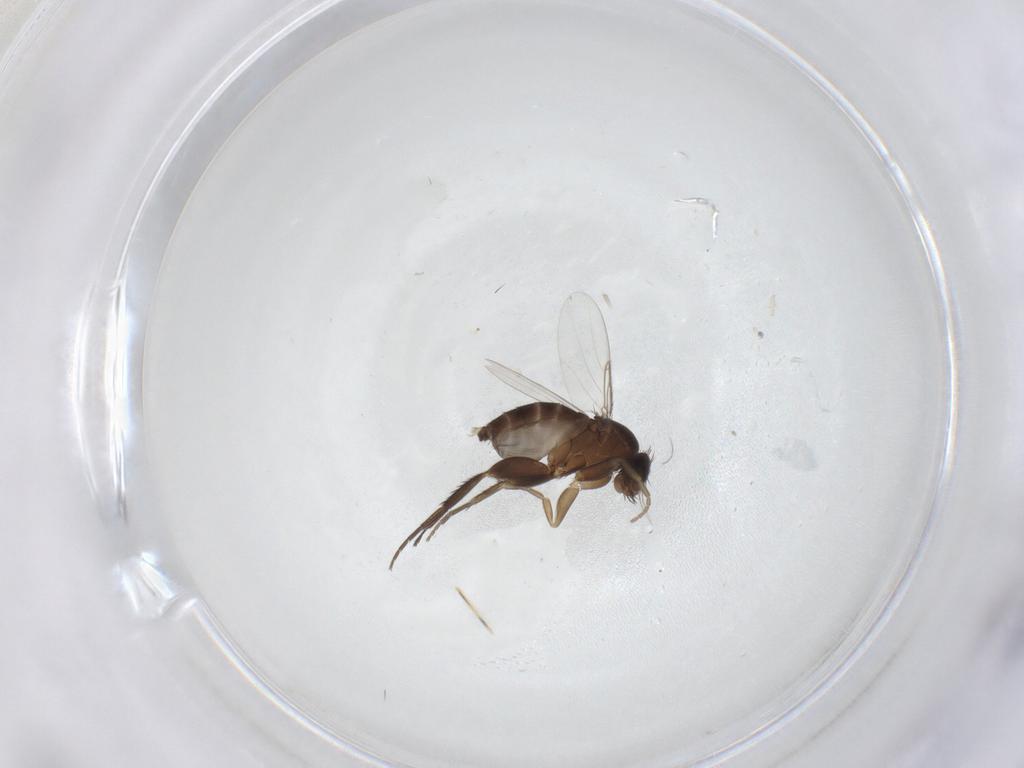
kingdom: Animalia
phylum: Arthropoda
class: Insecta
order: Diptera
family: Phoridae
